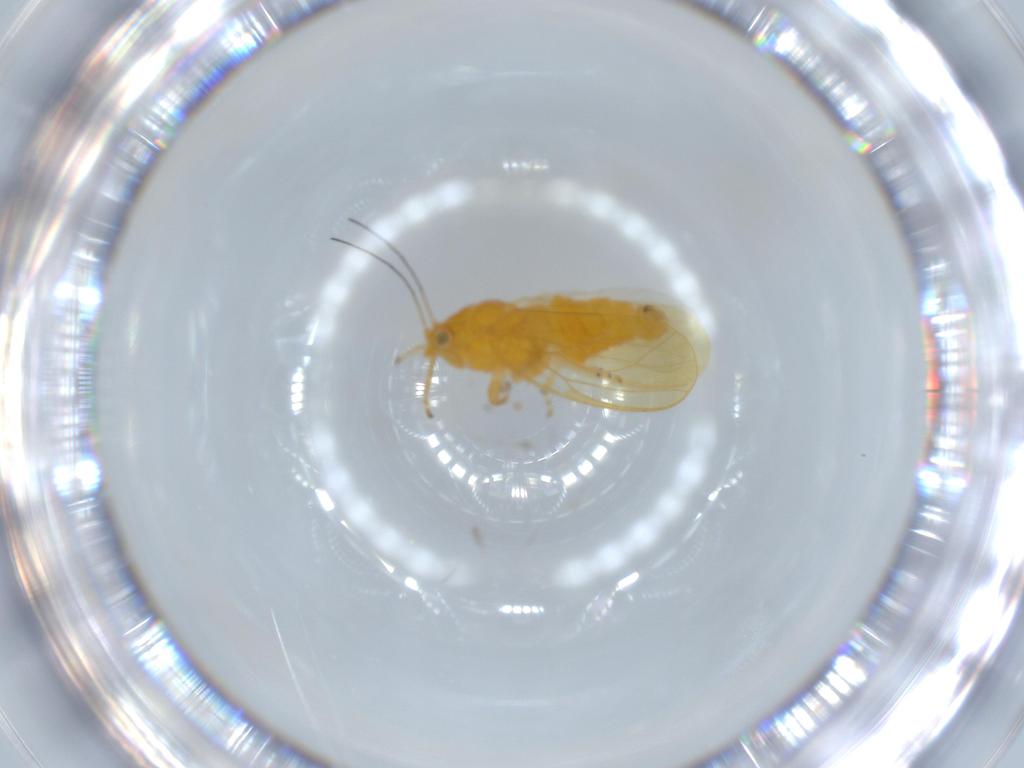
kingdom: Animalia
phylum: Arthropoda
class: Insecta
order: Hemiptera
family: Psyllidae
